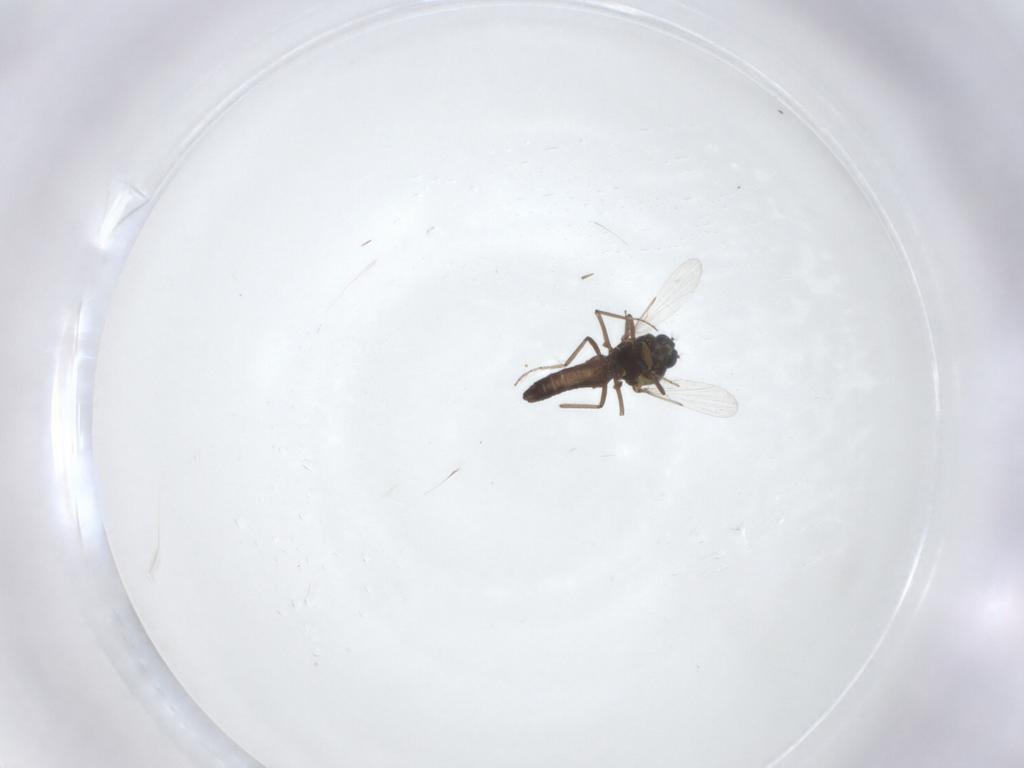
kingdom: Animalia
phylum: Arthropoda
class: Insecta
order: Diptera
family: Ceratopogonidae
